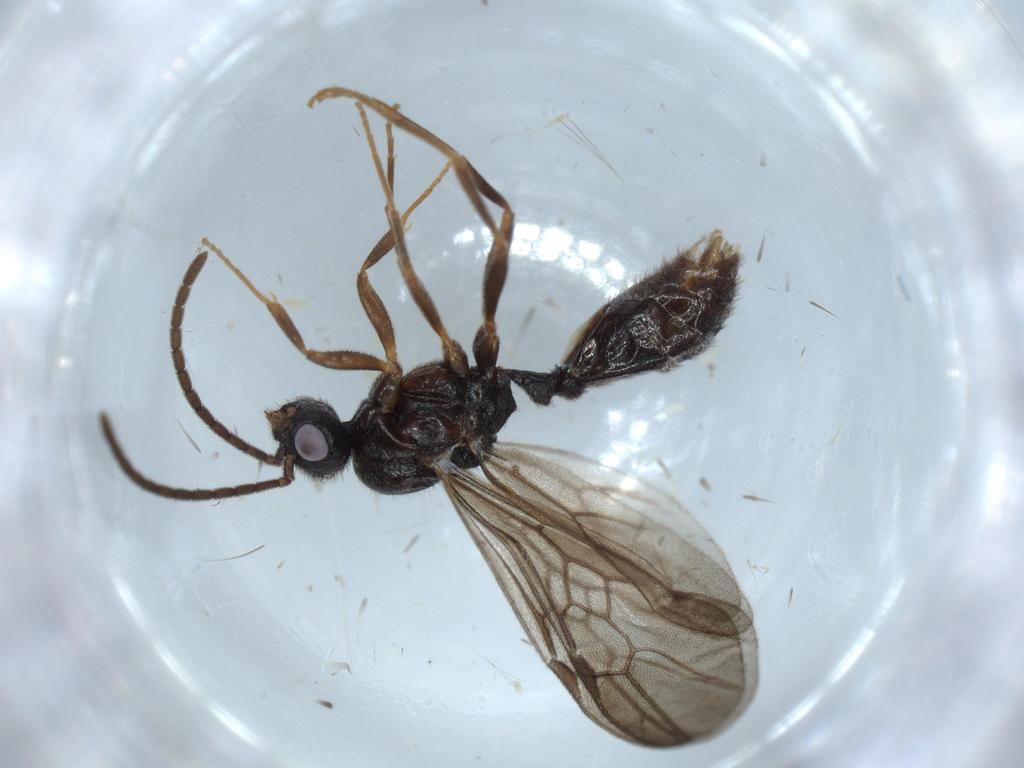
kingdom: Animalia
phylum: Arthropoda
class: Insecta
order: Hymenoptera
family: Formicidae
